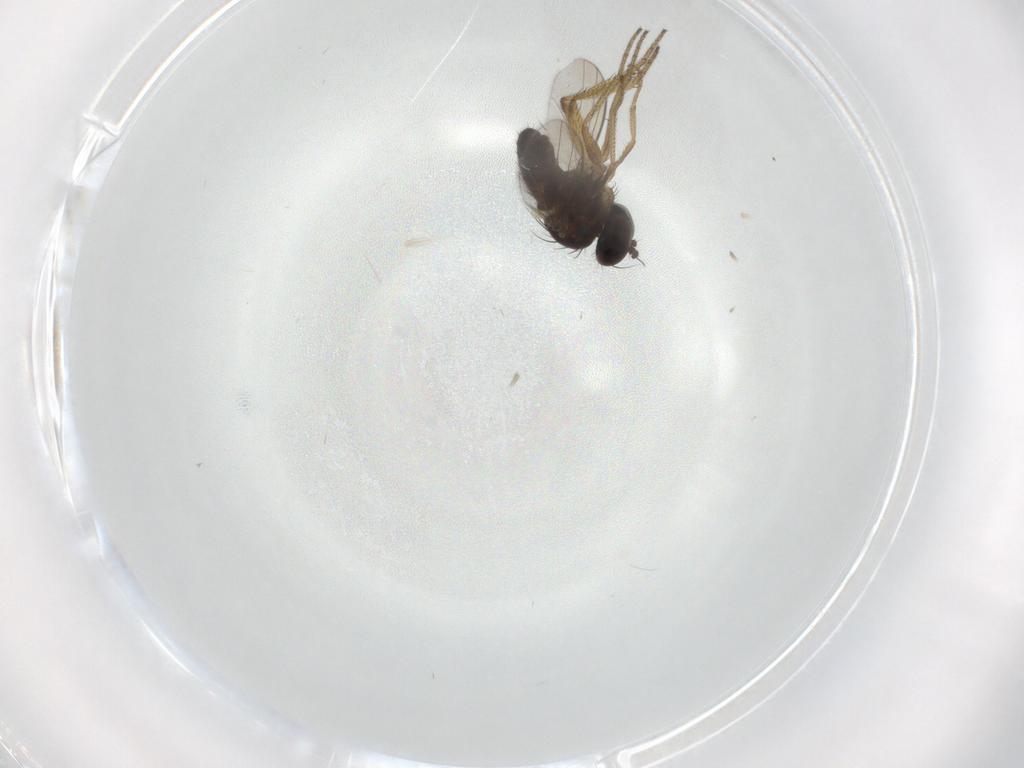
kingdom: Animalia
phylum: Arthropoda
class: Insecta
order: Diptera
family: Dolichopodidae
